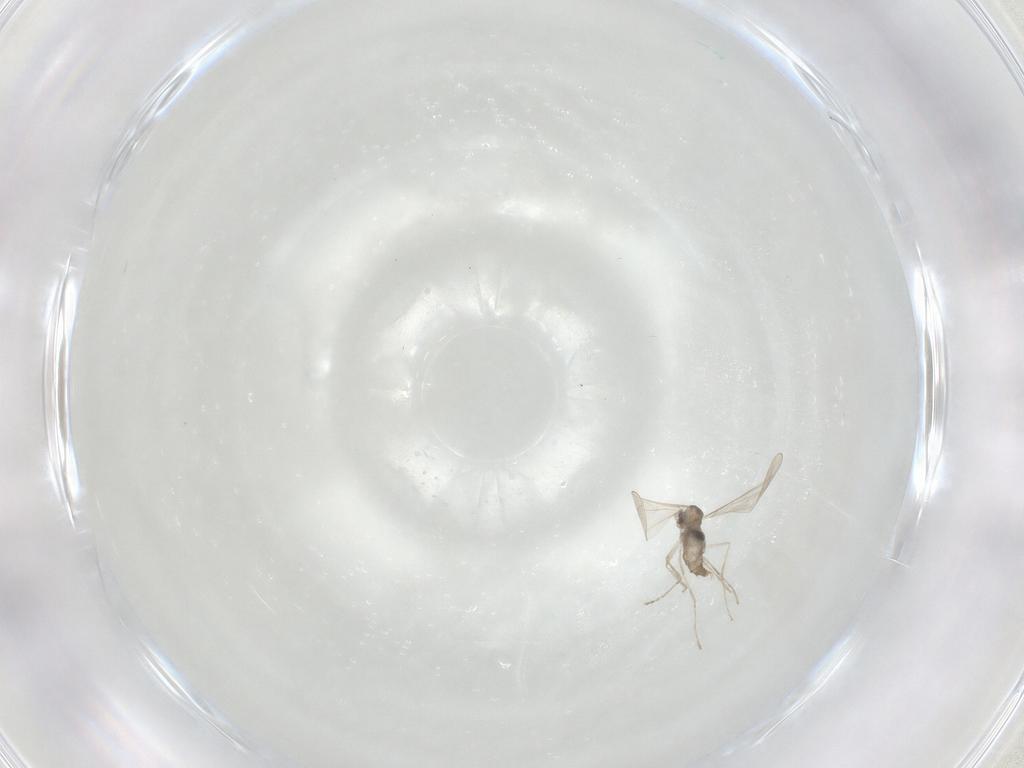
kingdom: Animalia
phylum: Arthropoda
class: Insecta
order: Diptera
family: Cecidomyiidae
